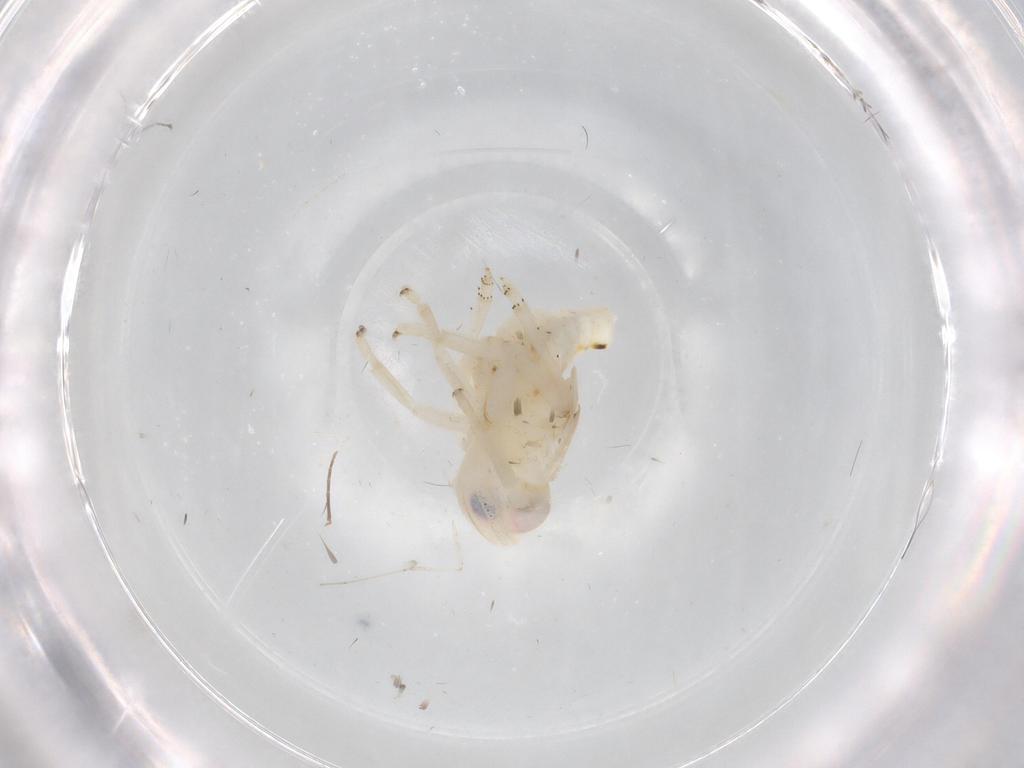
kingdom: Animalia
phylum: Arthropoda
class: Insecta
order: Hemiptera
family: Nogodinidae
